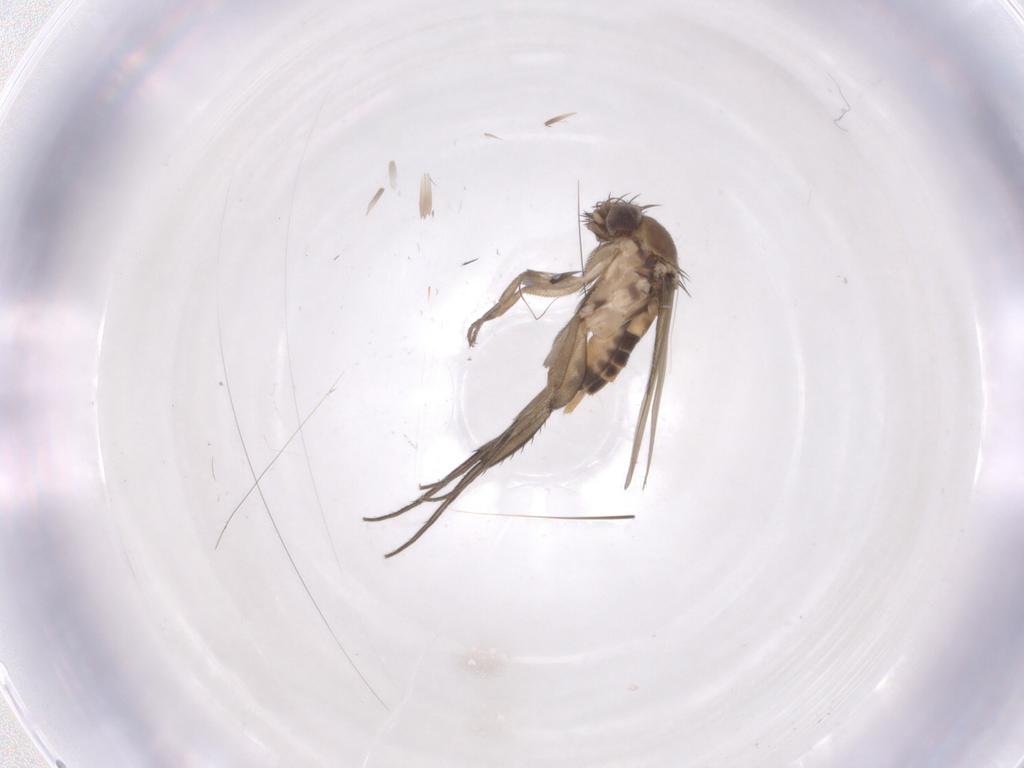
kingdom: Animalia
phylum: Arthropoda
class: Insecta
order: Diptera
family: Phoridae
